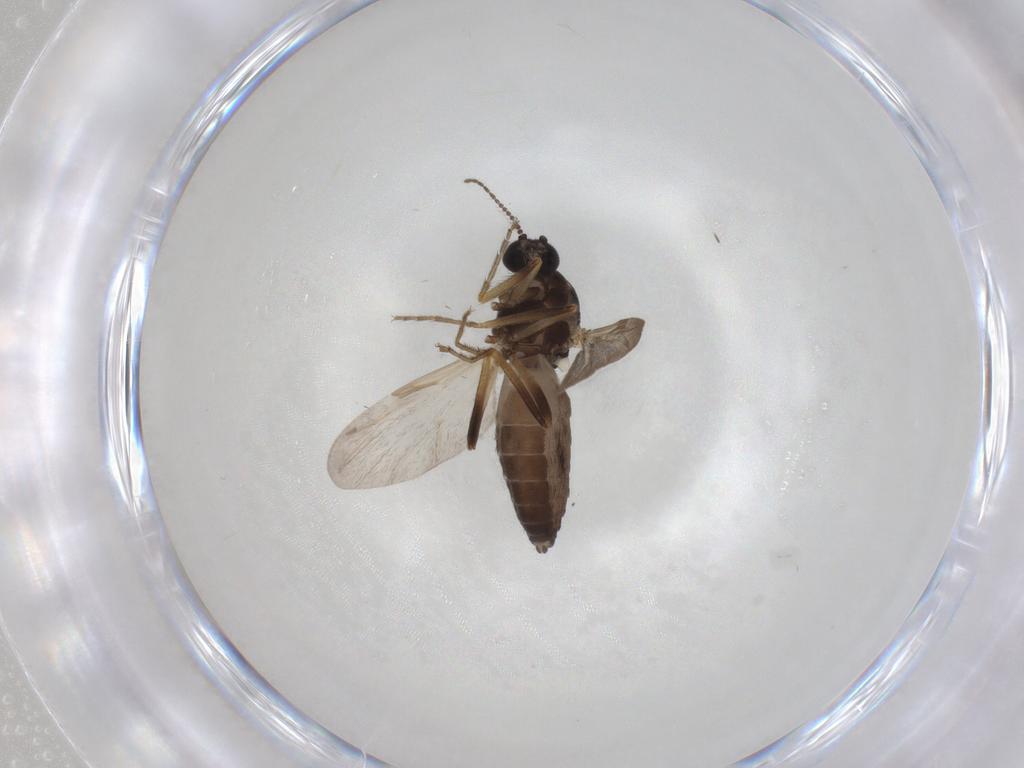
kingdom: Animalia
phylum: Arthropoda
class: Insecta
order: Diptera
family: Ceratopogonidae
